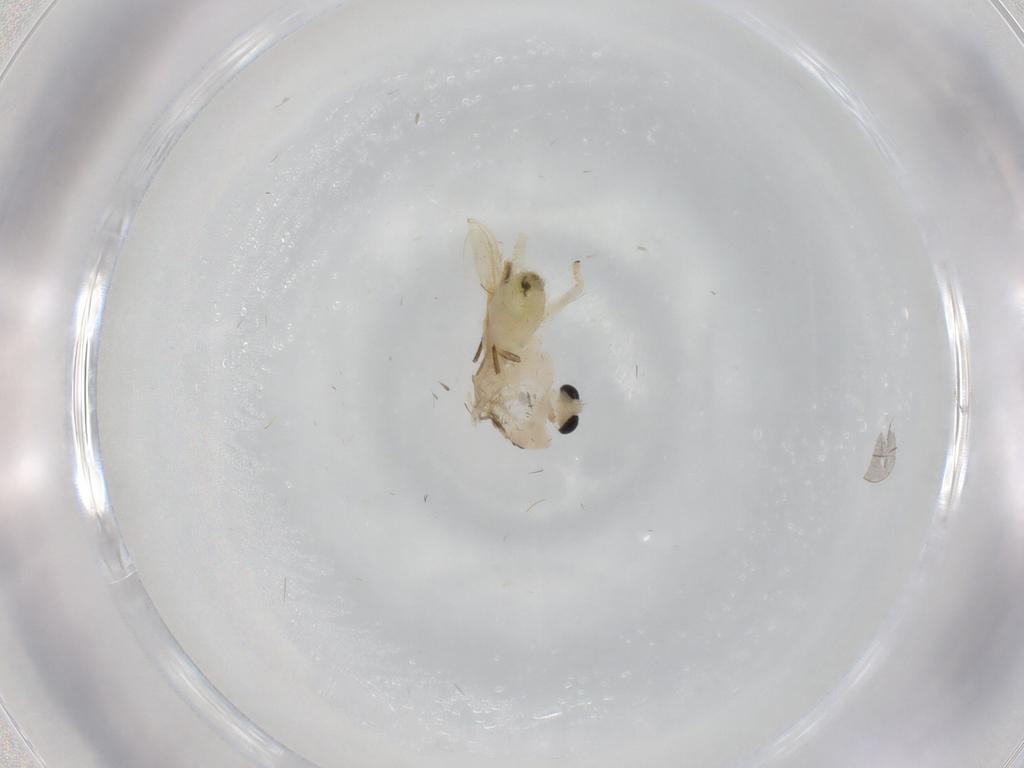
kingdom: Animalia
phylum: Arthropoda
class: Insecta
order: Diptera
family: Chironomidae
